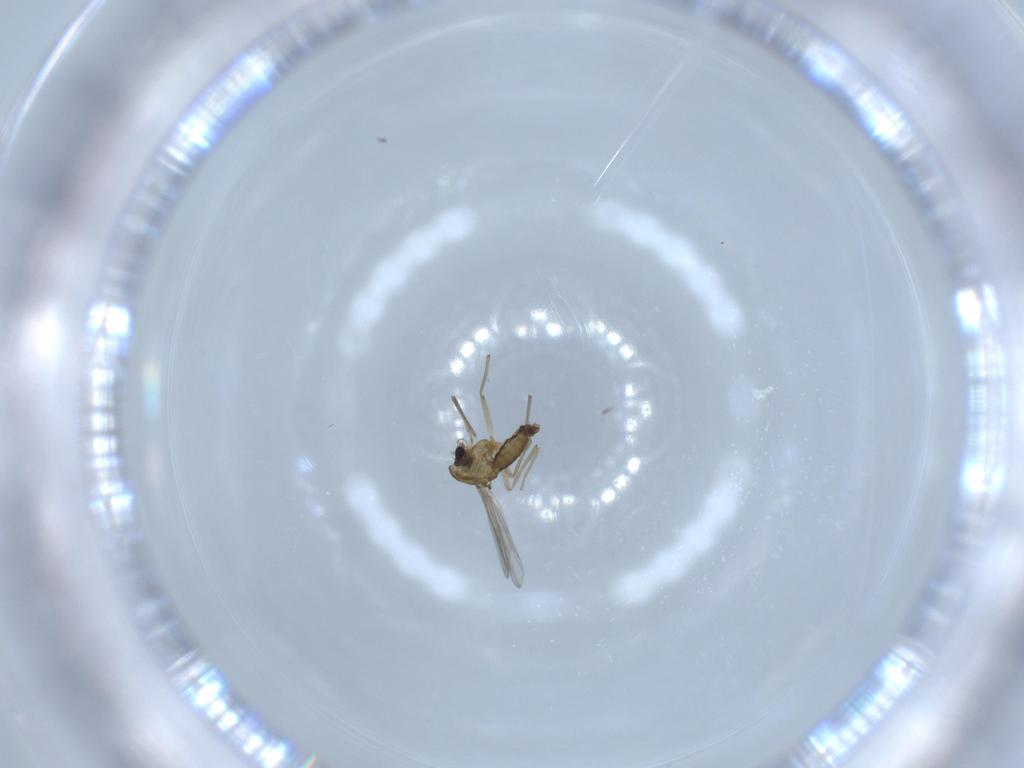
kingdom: Animalia
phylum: Arthropoda
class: Insecta
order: Diptera
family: Chironomidae
